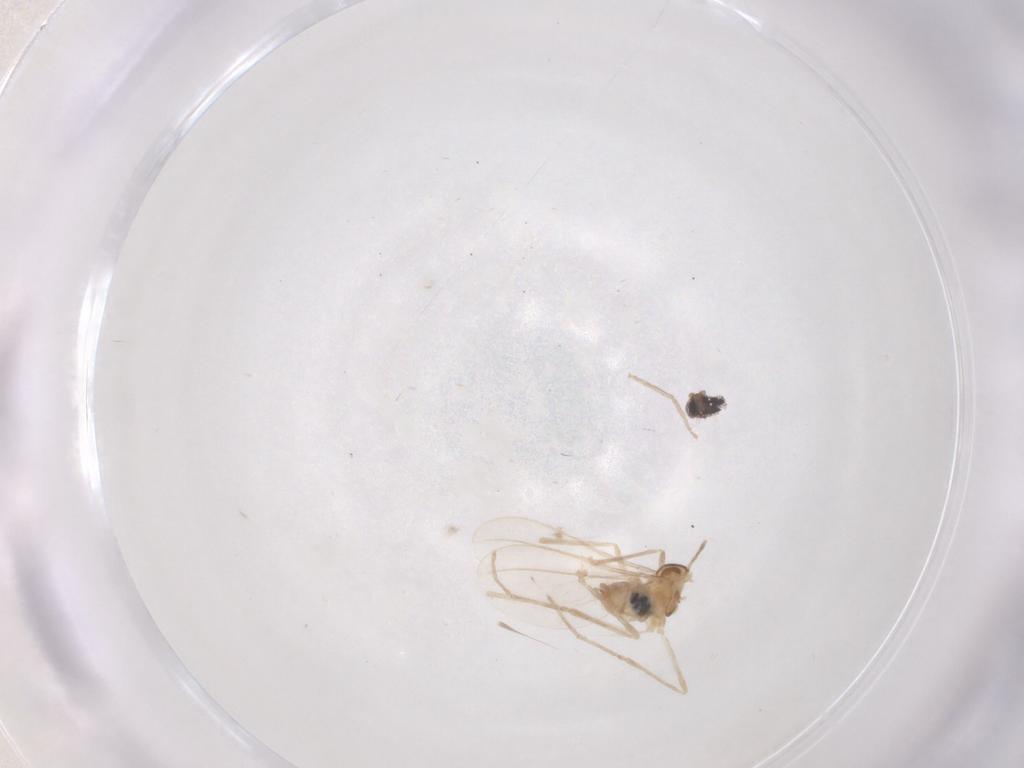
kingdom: Animalia
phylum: Arthropoda
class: Insecta
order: Diptera
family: Cecidomyiidae
